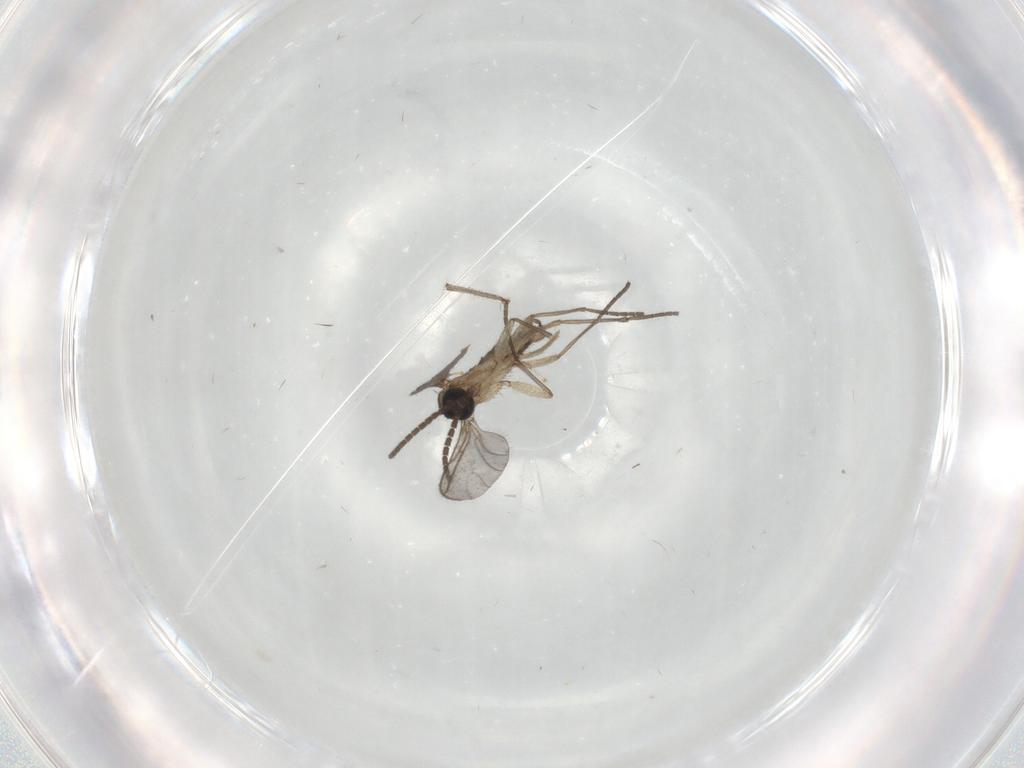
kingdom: Animalia
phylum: Arthropoda
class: Insecta
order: Diptera
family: Sciaridae
